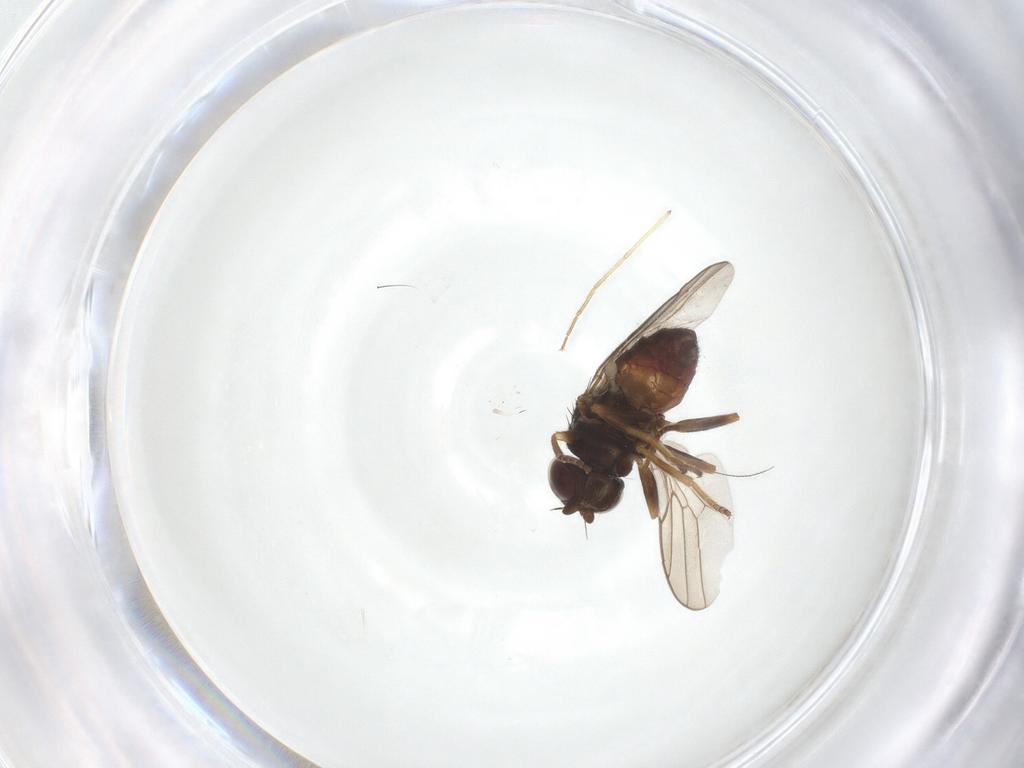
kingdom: Animalia
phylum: Arthropoda
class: Insecta
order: Diptera
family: Chloropidae
